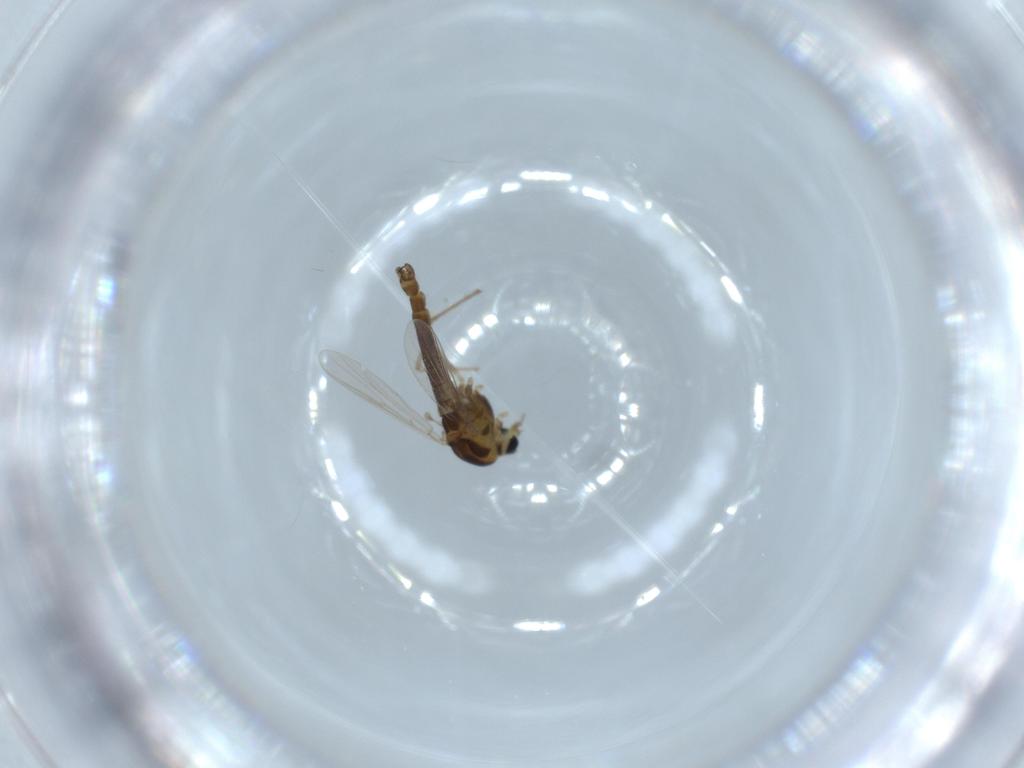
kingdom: Animalia
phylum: Arthropoda
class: Insecta
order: Diptera
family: Chironomidae
